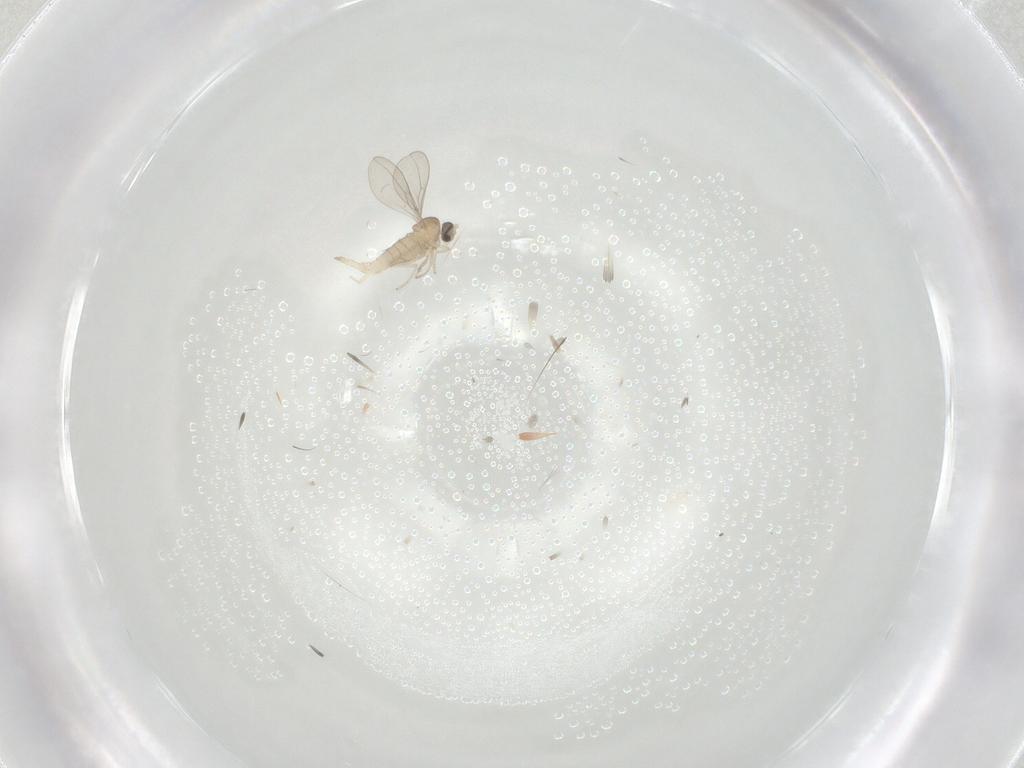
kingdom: Animalia
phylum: Arthropoda
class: Insecta
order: Diptera
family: Cecidomyiidae
